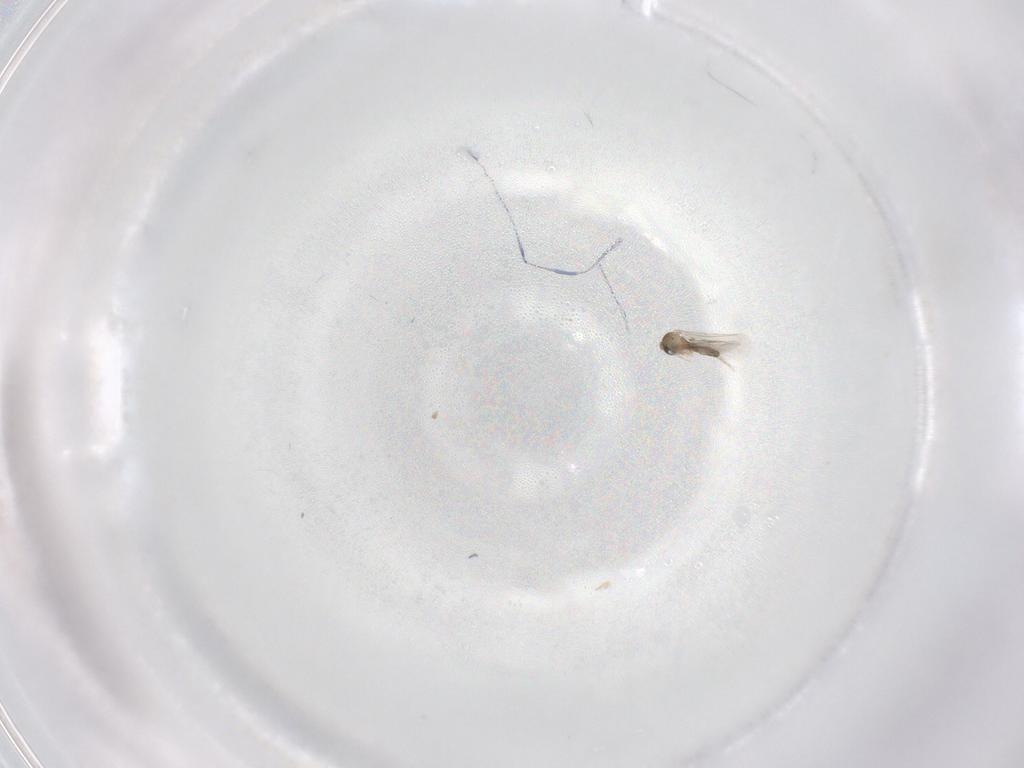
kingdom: Animalia
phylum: Arthropoda
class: Insecta
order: Diptera
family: Cecidomyiidae
